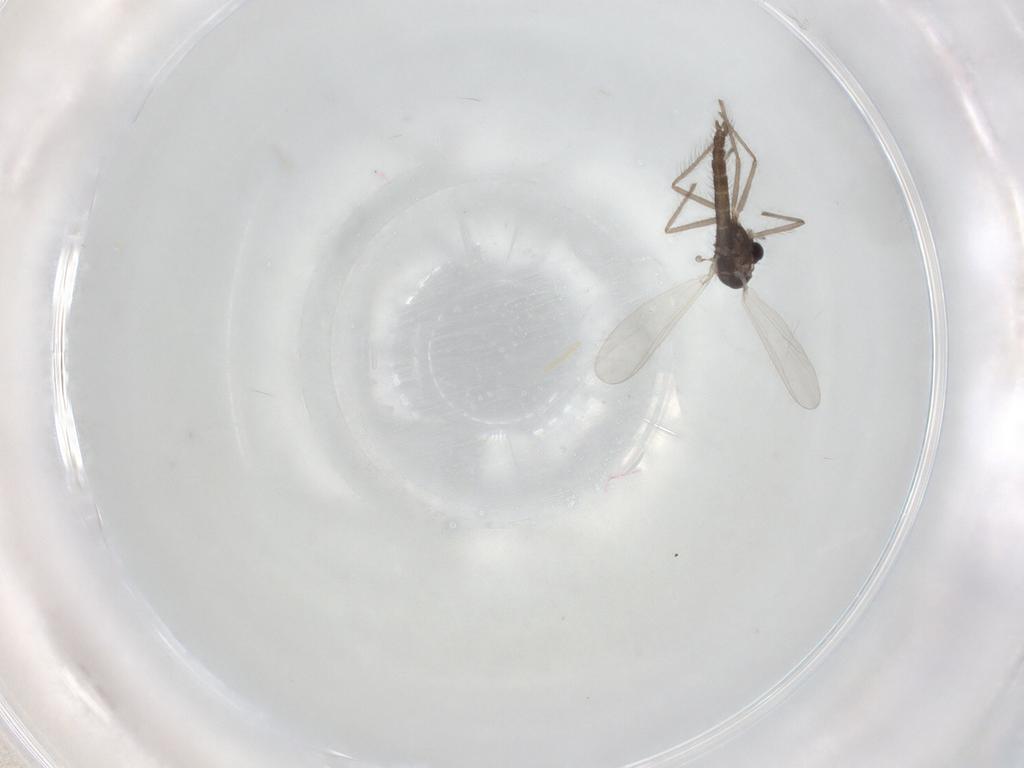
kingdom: Animalia
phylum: Arthropoda
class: Insecta
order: Diptera
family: Chironomidae
